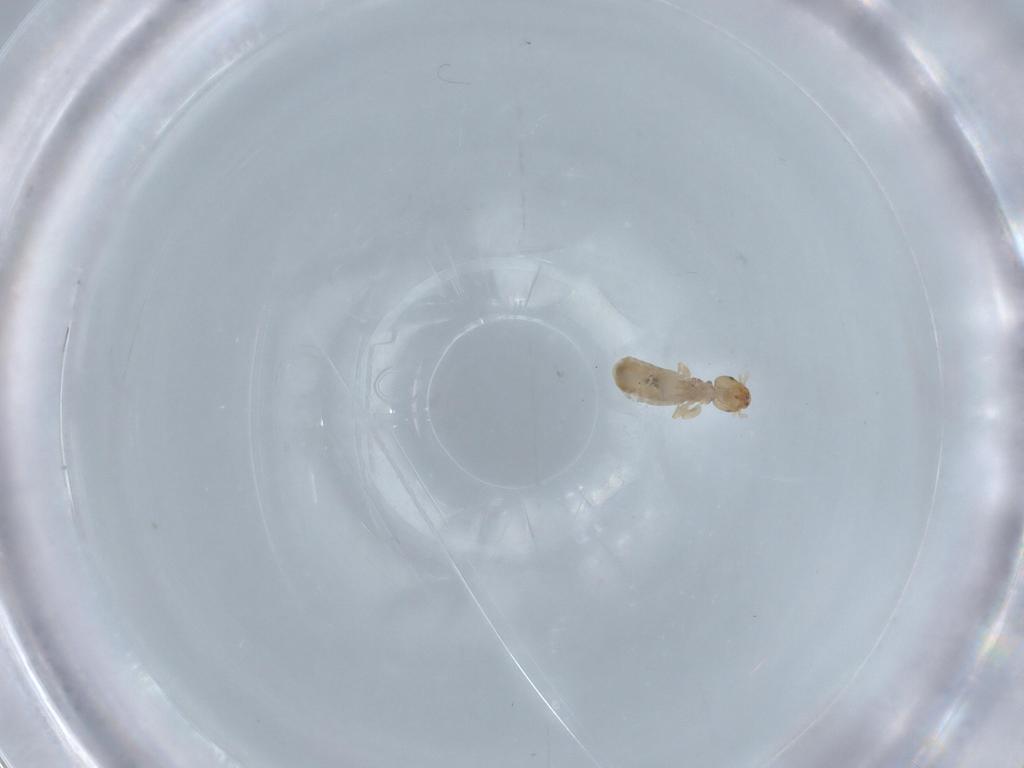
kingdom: Animalia
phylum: Arthropoda
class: Insecta
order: Psocodea
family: Liposcelididae
